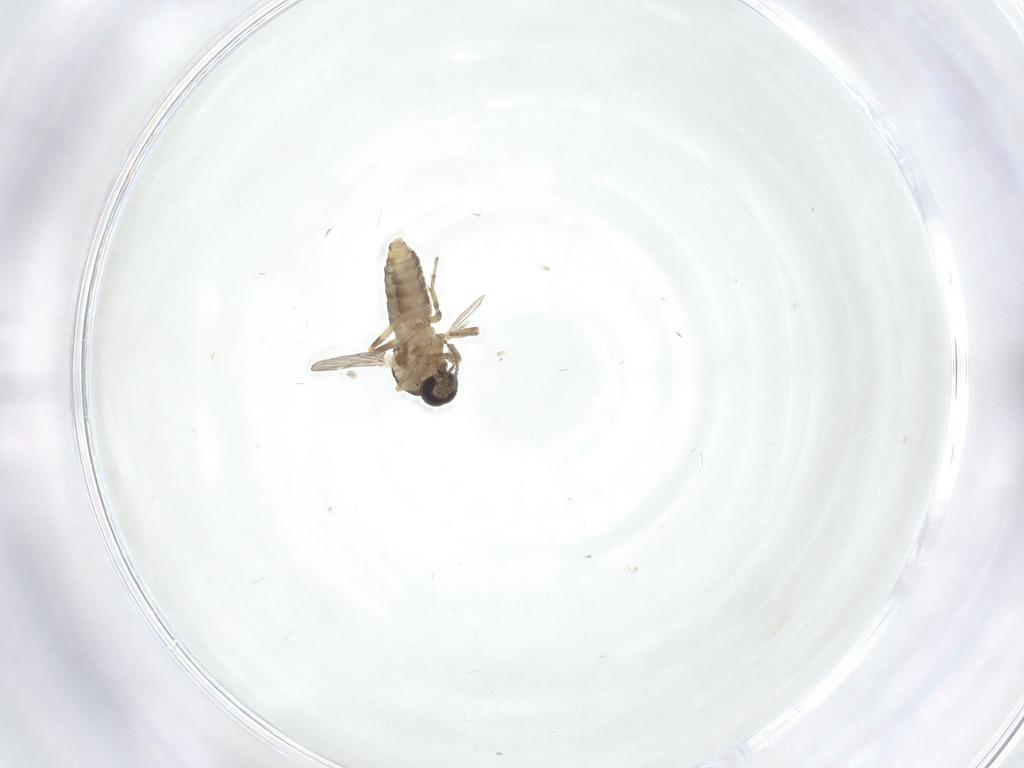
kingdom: Animalia
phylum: Arthropoda
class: Insecta
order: Diptera
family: Ceratopogonidae
